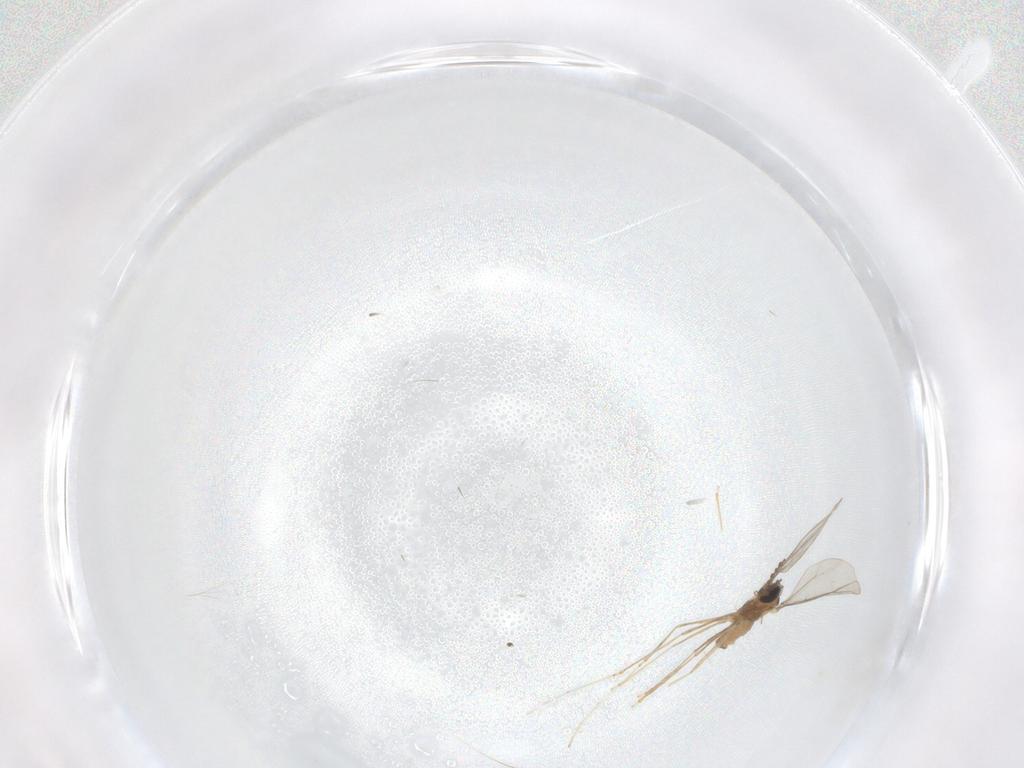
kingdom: Animalia
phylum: Arthropoda
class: Insecta
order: Diptera
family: Cecidomyiidae
